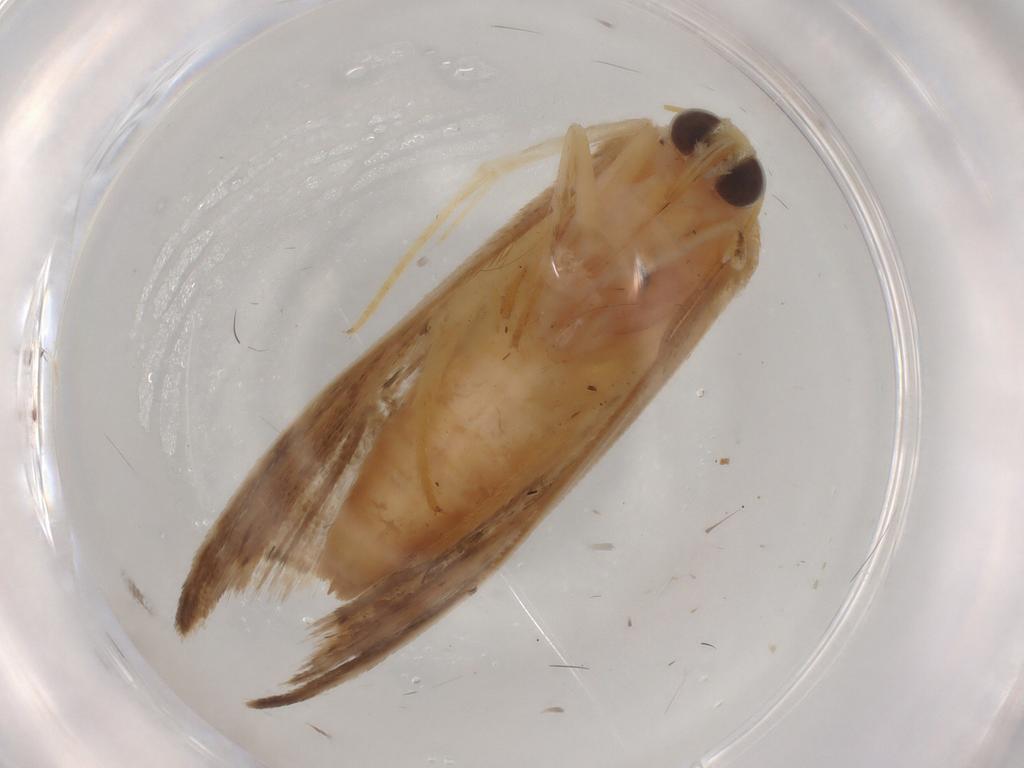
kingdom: Animalia
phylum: Arthropoda
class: Insecta
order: Lepidoptera
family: Noctuidae
